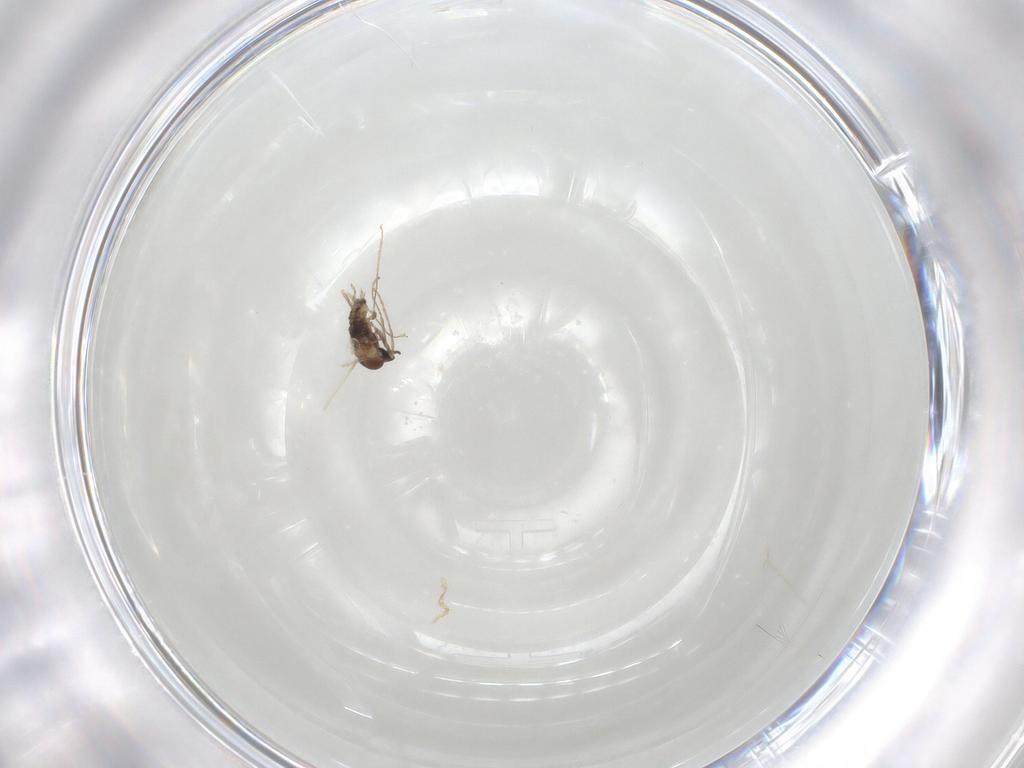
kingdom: Animalia
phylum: Arthropoda
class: Insecta
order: Diptera
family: Cecidomyiidae
